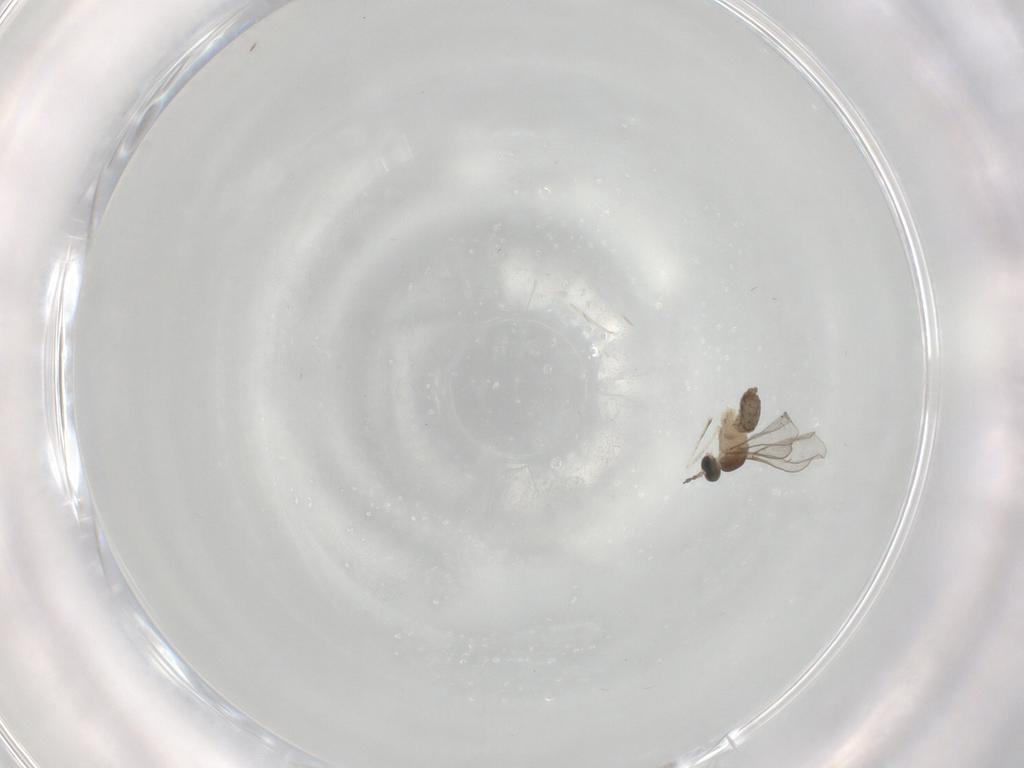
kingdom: Animalia
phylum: Arthropoda
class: Insecta
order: Diptera
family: Cecidomyiidae
